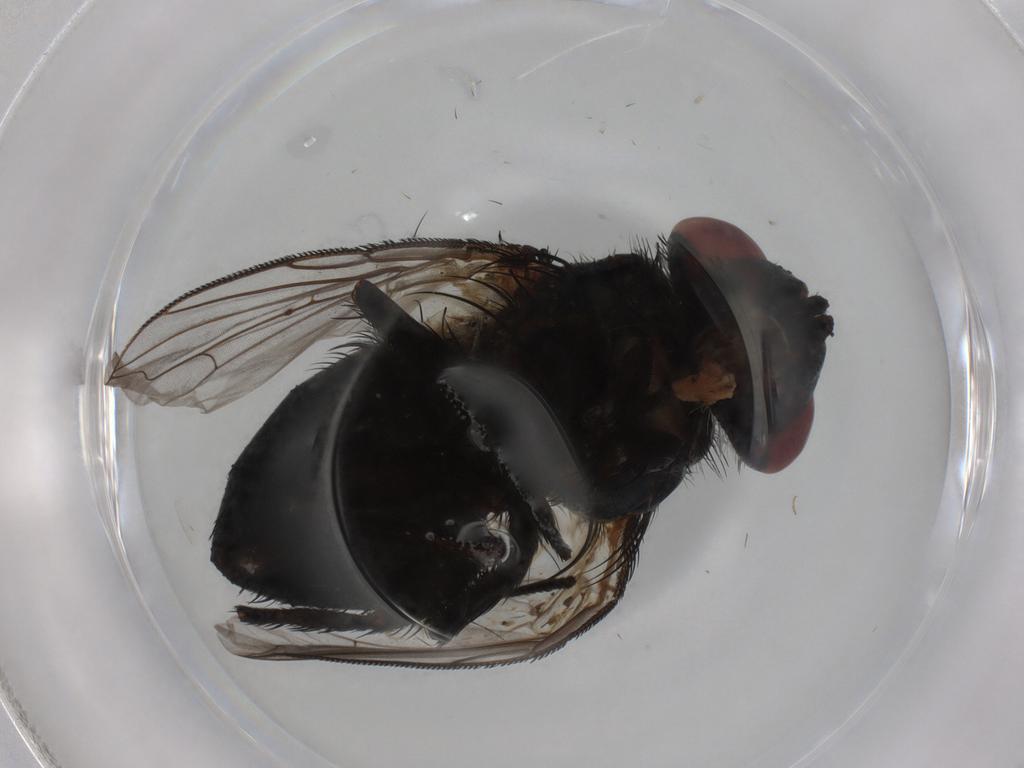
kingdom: Animalia
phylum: Arthropoda
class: Insecta
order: Diptera
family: Tachinidae
